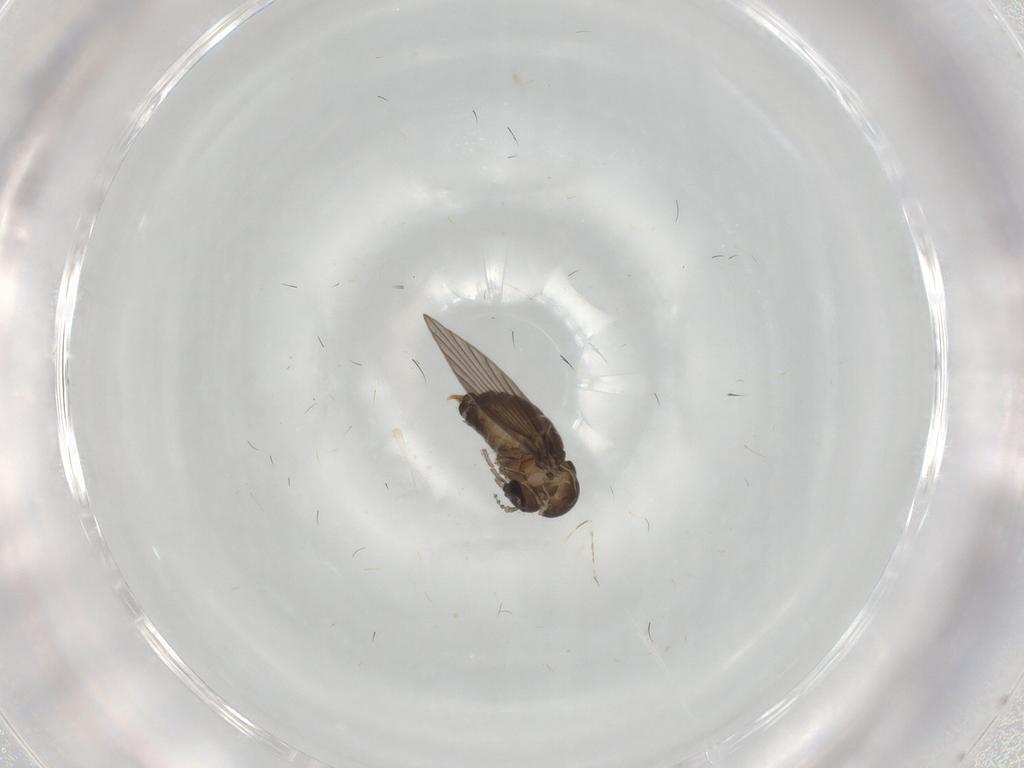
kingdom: Animalia
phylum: Arthropoda
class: Insecta
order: Diptera
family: Psychodidae
